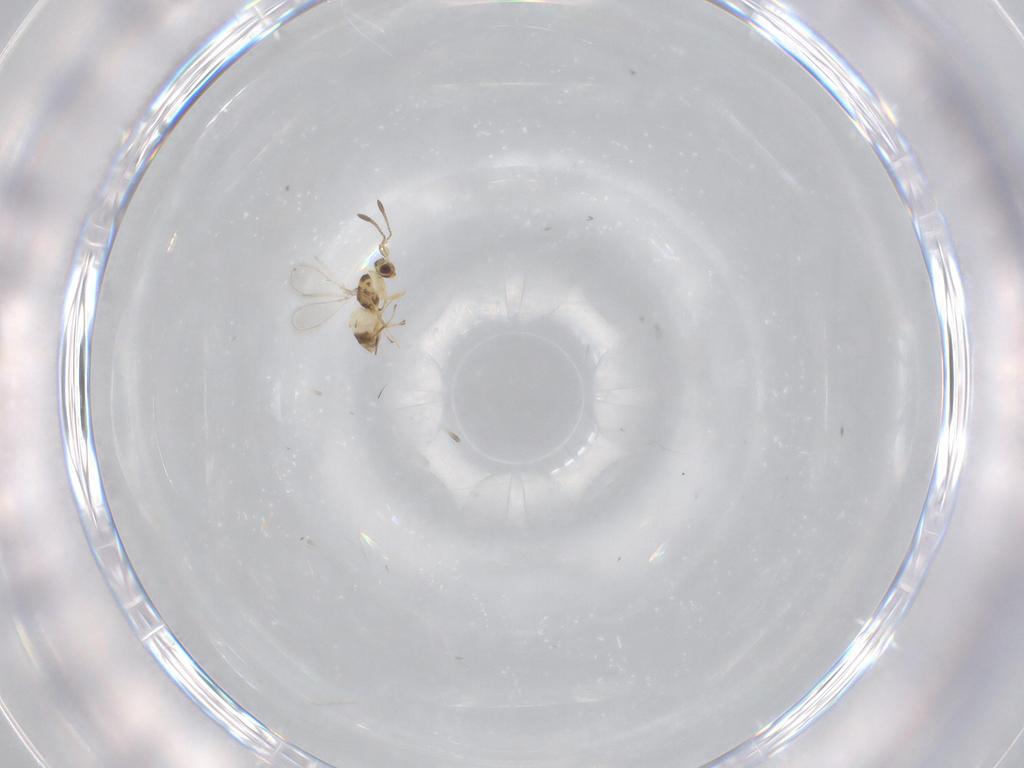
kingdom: Animalia
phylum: Arthropoda
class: Insecta
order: Hymenoptera
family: Mymaridae
